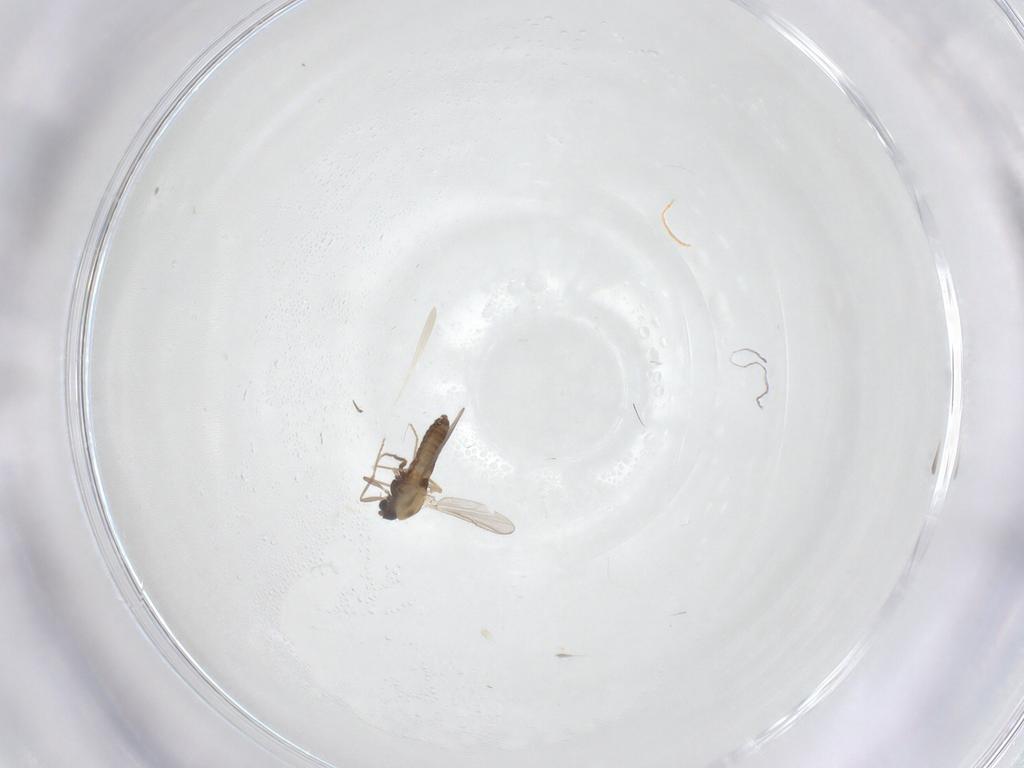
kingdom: Animalia
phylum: Arthropoda
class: Insecta
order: Diptera
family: Chironomidae
